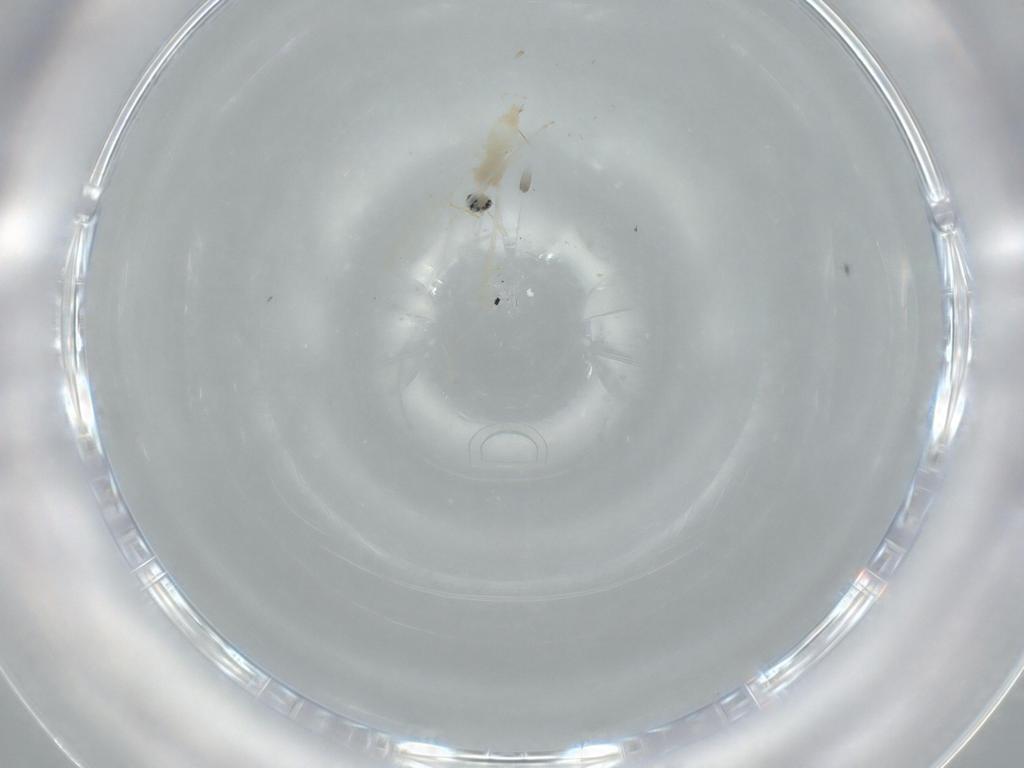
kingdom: Animalia
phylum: Arthropoda
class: Insecta
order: Diptera
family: Cecidomyiidae
